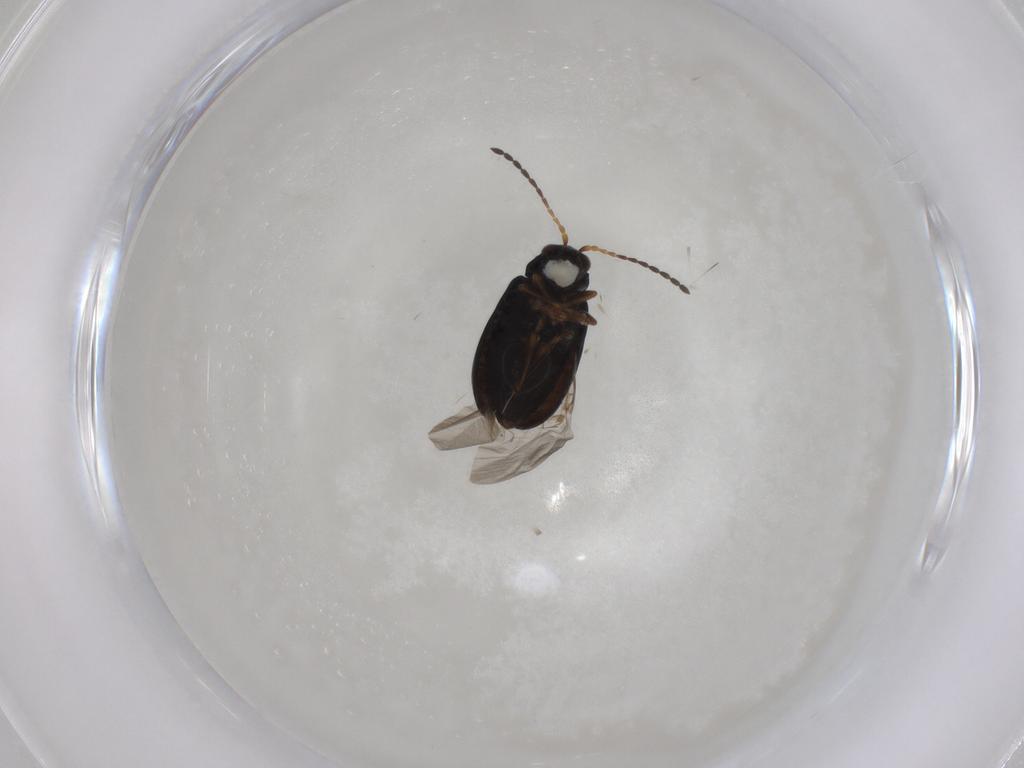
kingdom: Animalia
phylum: Arthropoda
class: Insecta
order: Coleoptera
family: Chrysomelidae
